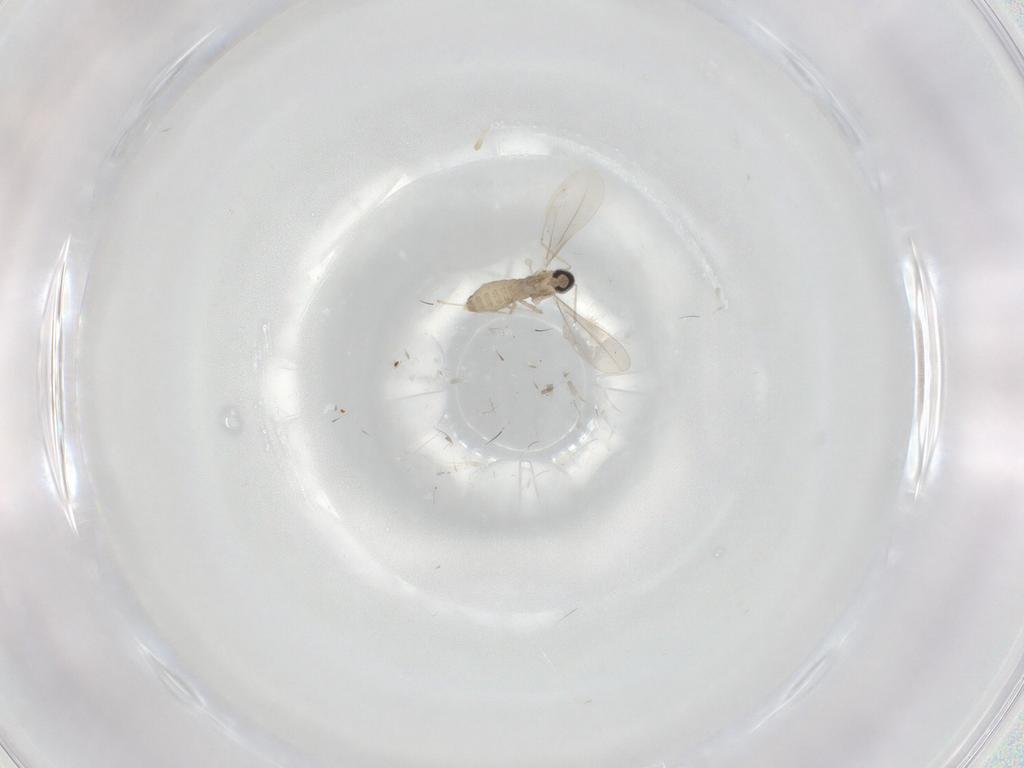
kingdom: Animalia
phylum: Arthropoda
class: Insecta
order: Diptera
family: Cecidomyiidae
